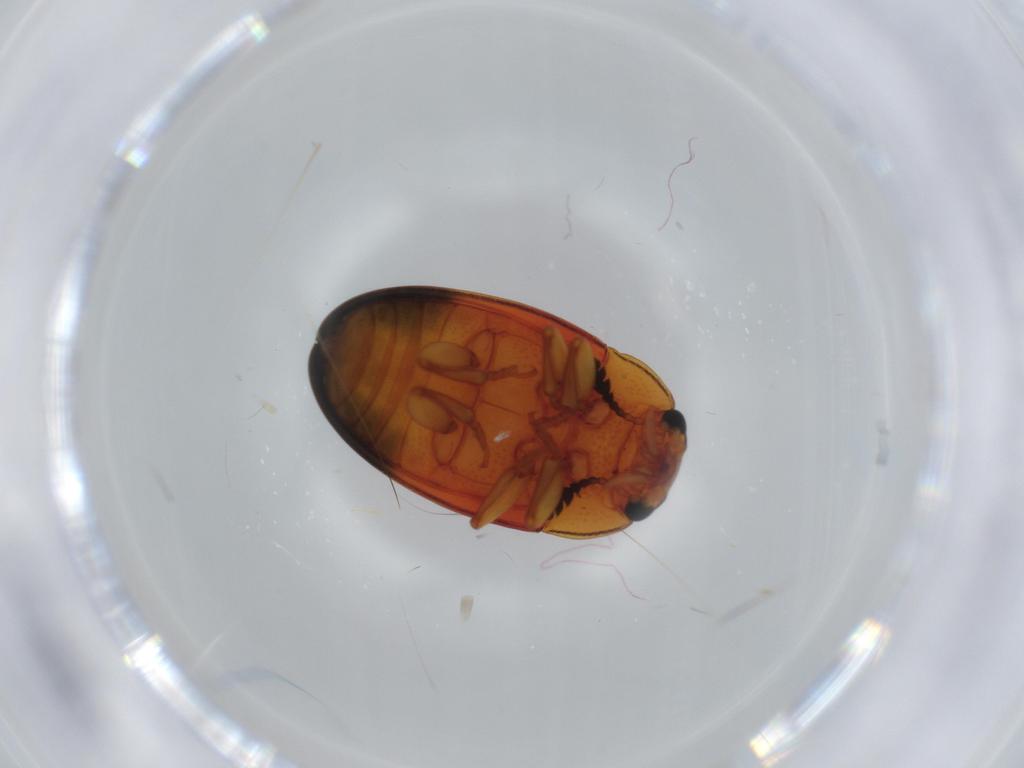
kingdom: Animalia
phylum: Arthropoda
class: Insecta
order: Coleoptera
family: Erotylidae
